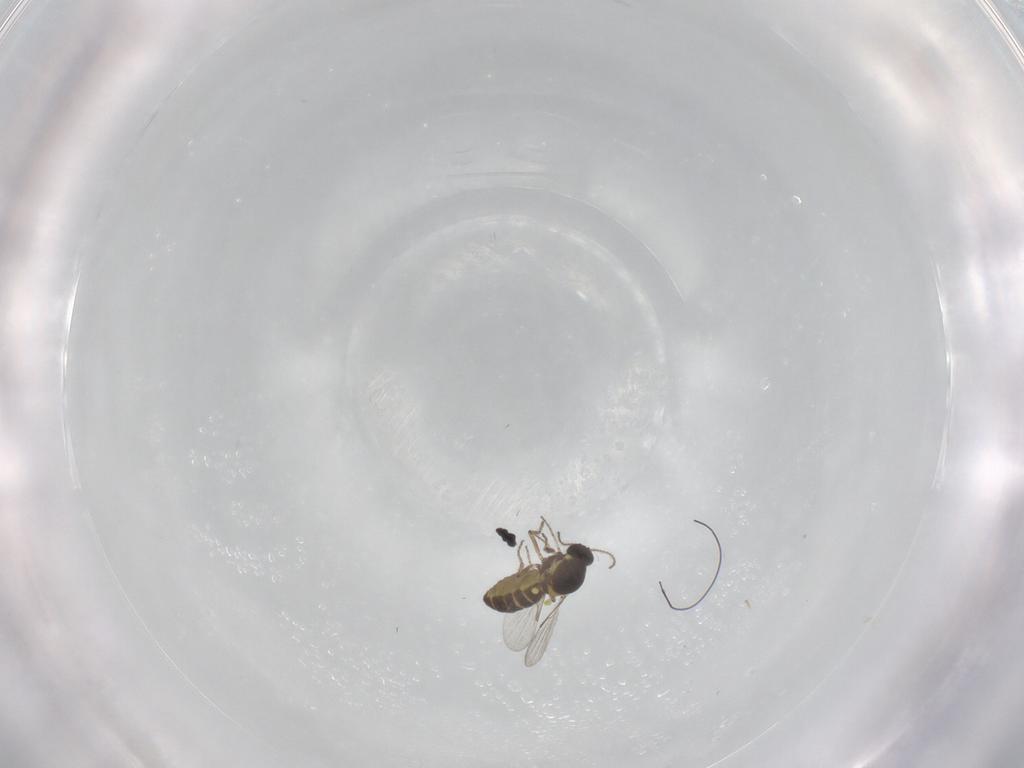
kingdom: Animalia
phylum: Arthropoda
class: Insecta
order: Diptera
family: Ceratopogonidae
